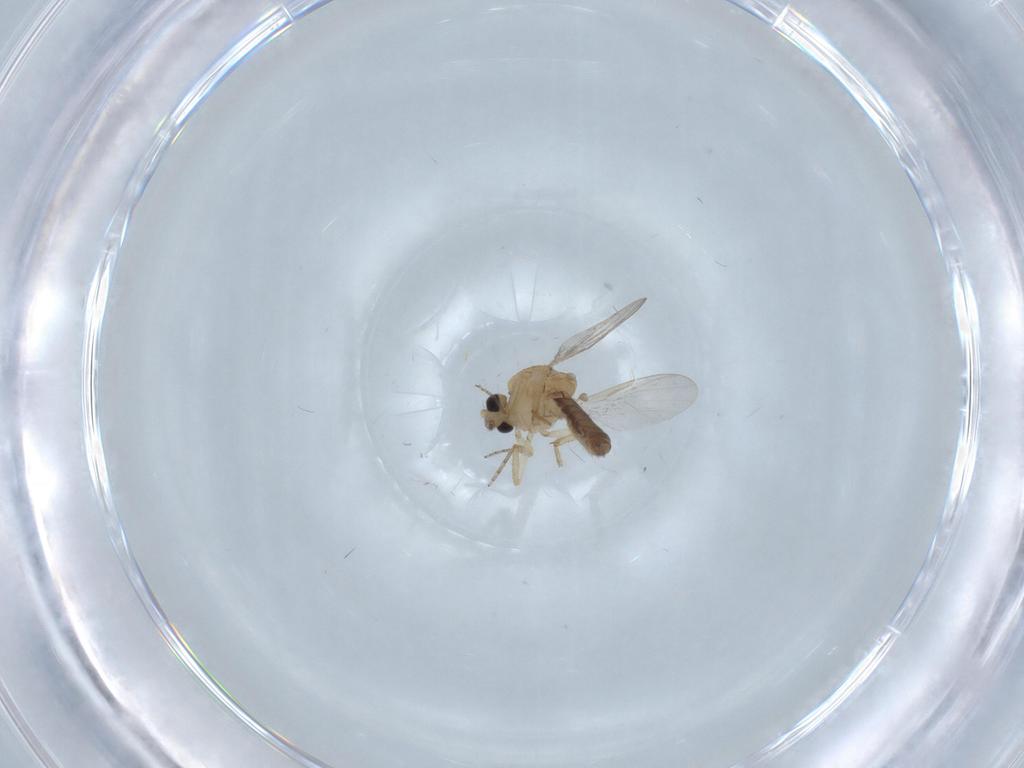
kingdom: Animalia
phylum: Arthropoda
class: Insecta
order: Diptera
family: Ceratopogonidae
